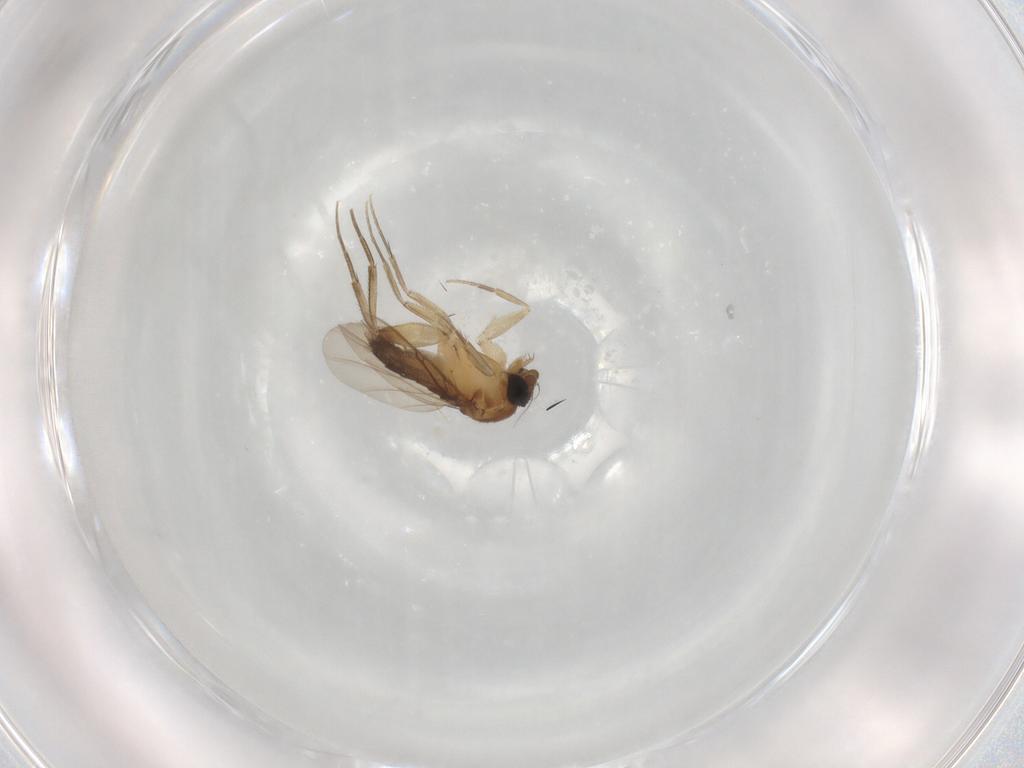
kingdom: Animalia
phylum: Arthropoda
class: Insecta
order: Diptera
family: Phoridae
